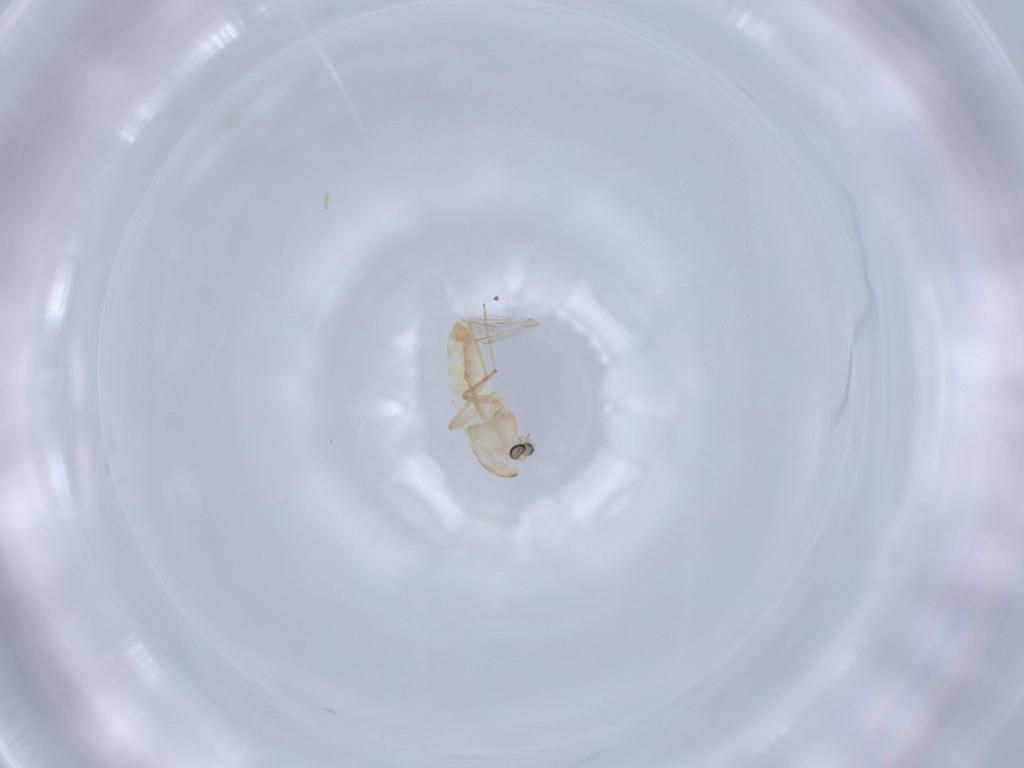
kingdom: Animalia
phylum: Arthropoda
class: Insecta
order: Diptera
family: Chironomidae
